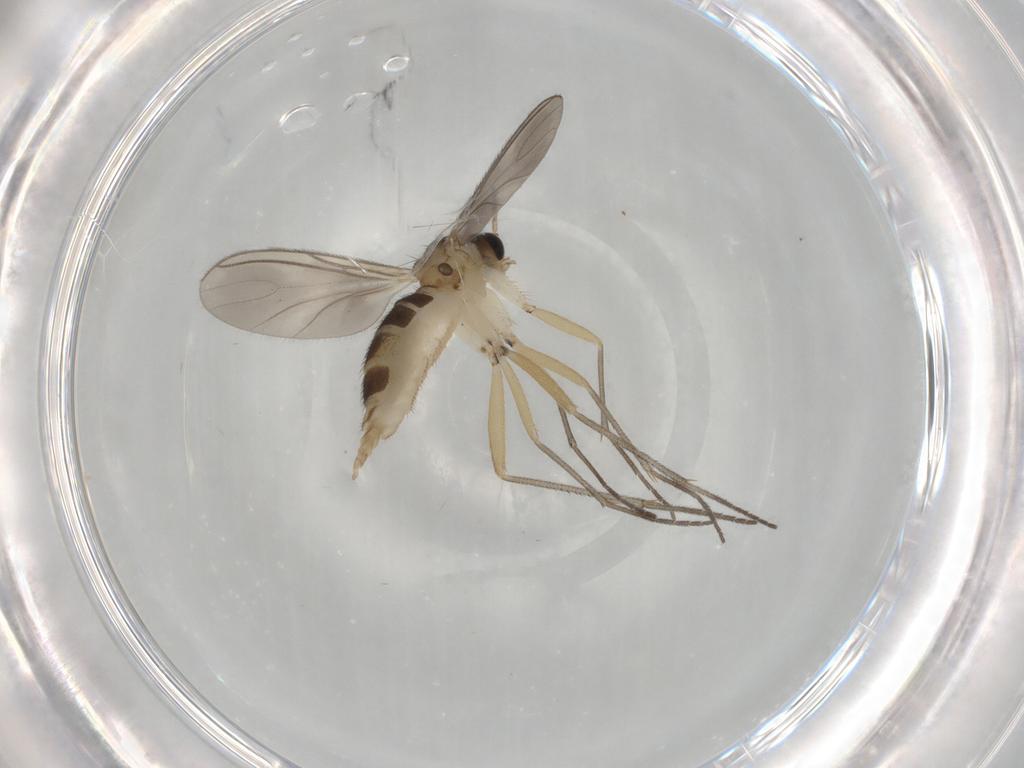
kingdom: Animalia
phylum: Arthropoda
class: Insecta
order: Diptera
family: Sciaridae
